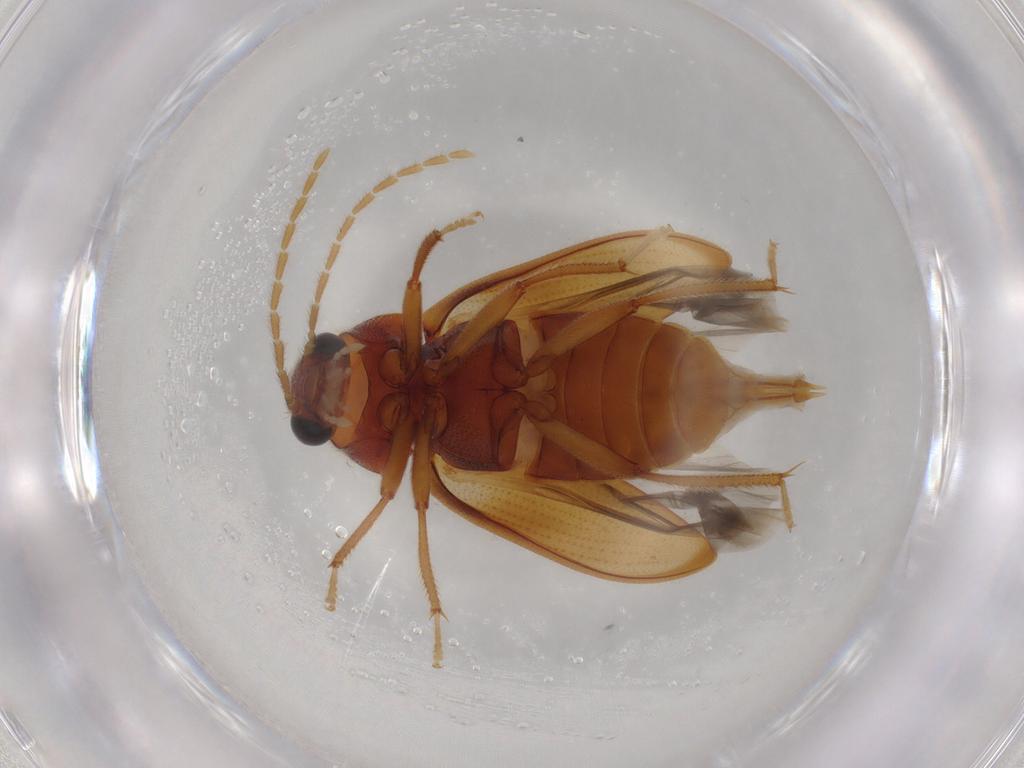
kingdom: Animalia
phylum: Arthropoda
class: Insecta
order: Coleoptera
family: Ptilodactylidae
